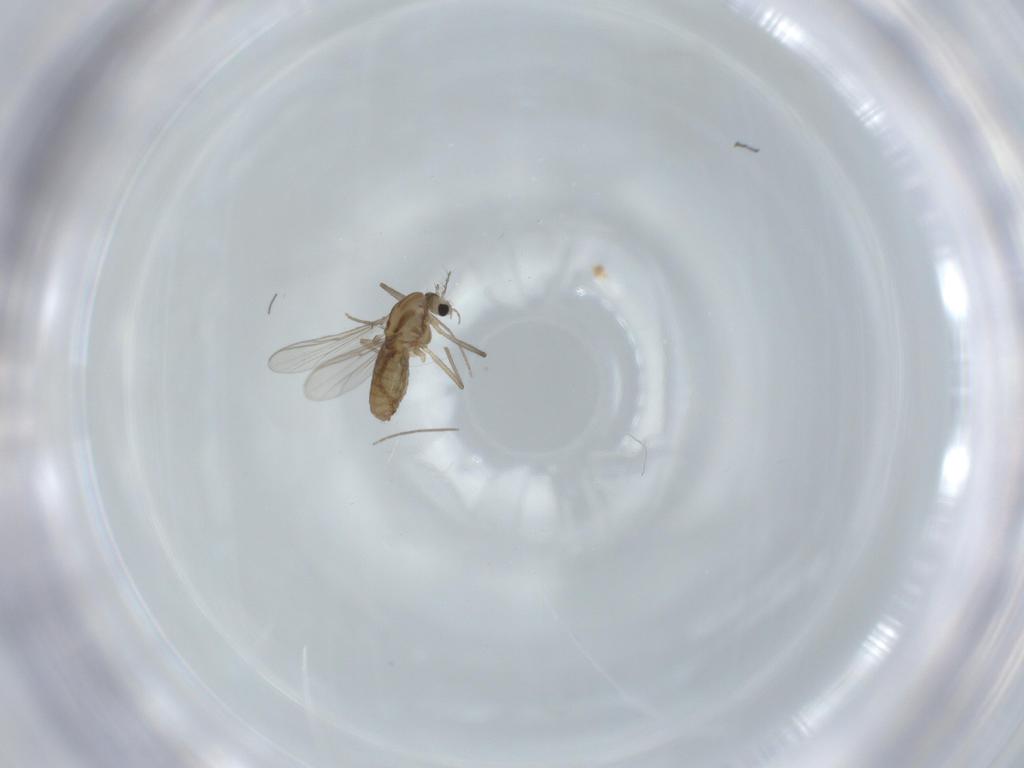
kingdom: Animalia
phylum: Arthropoda
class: Insecta
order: Diptera
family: Chironomidae
